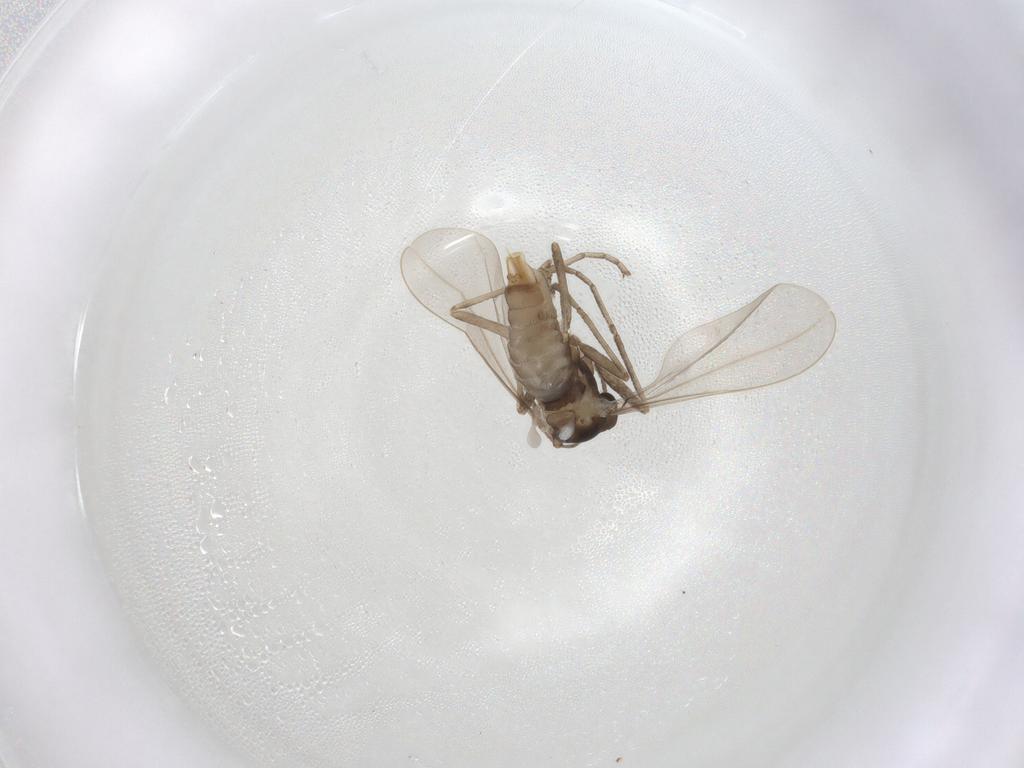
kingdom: Animalia
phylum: Arthropoda
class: Insecta
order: Diptera
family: Cecidomyiidae
